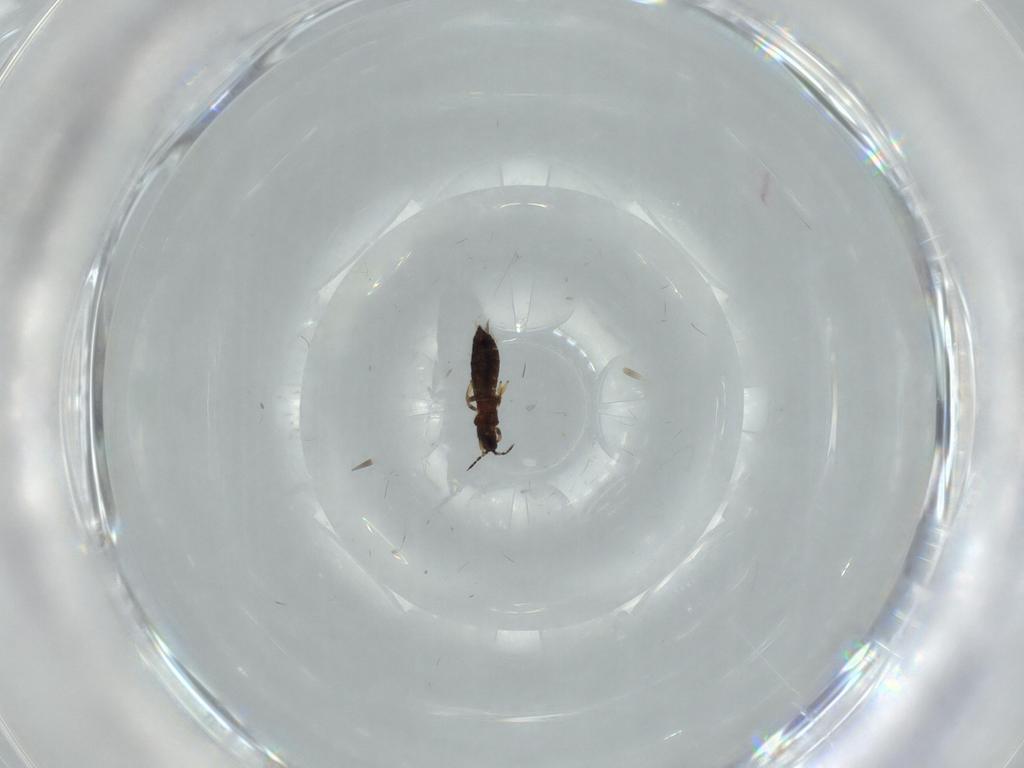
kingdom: Animalia
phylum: Arthropoda
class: Insecta
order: Thysanoptera
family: Thripidae
